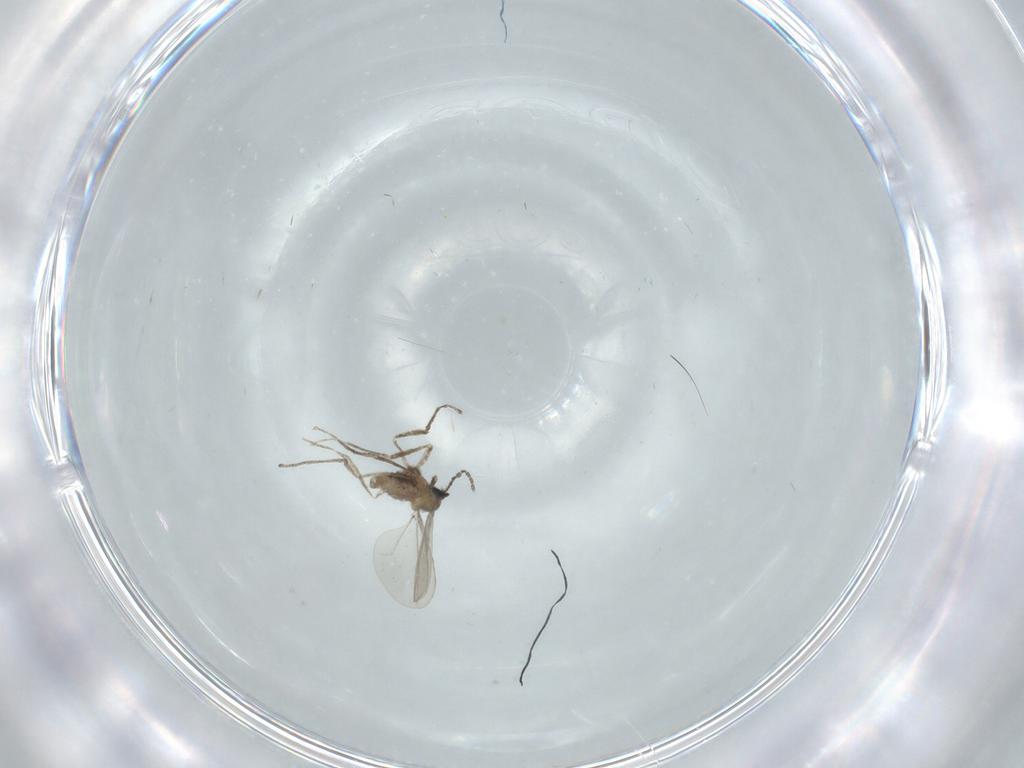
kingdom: Animalia
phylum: Arthropoda
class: Insecta
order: Diptera
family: Cecidomyiidae
